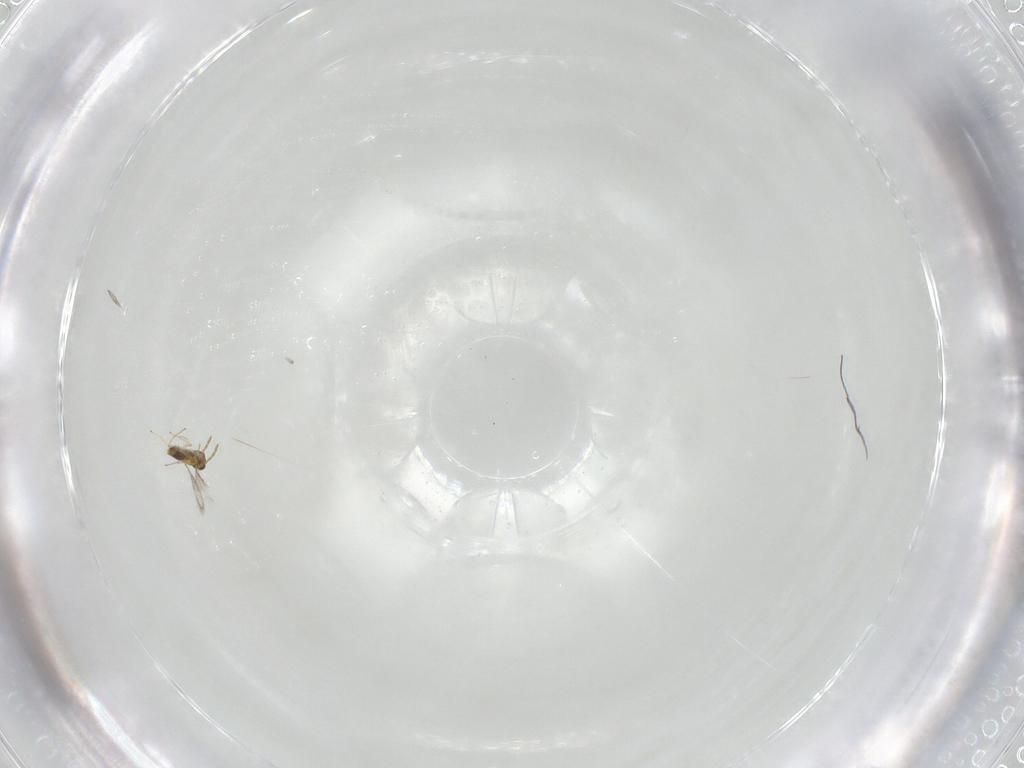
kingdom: Animalia
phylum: Arthropoda
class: Insecta
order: Hymenoptera
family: Aphelinidae
